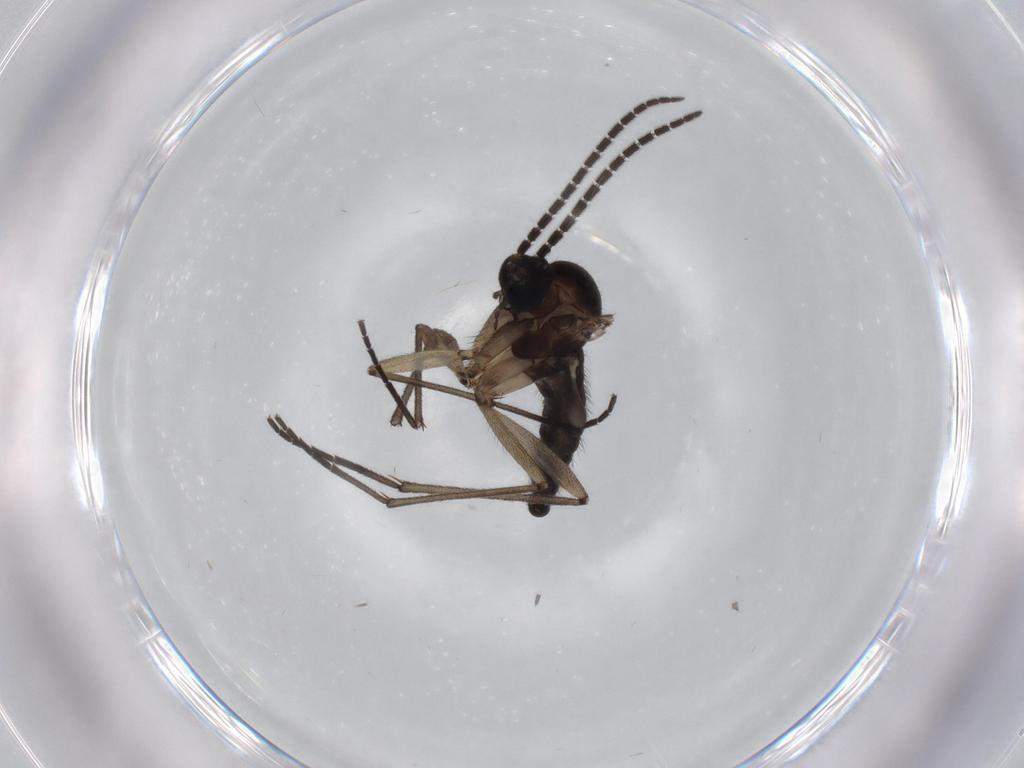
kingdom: Animalia
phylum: Arthropoda
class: Insecta
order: Diptera
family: Sciaridae
